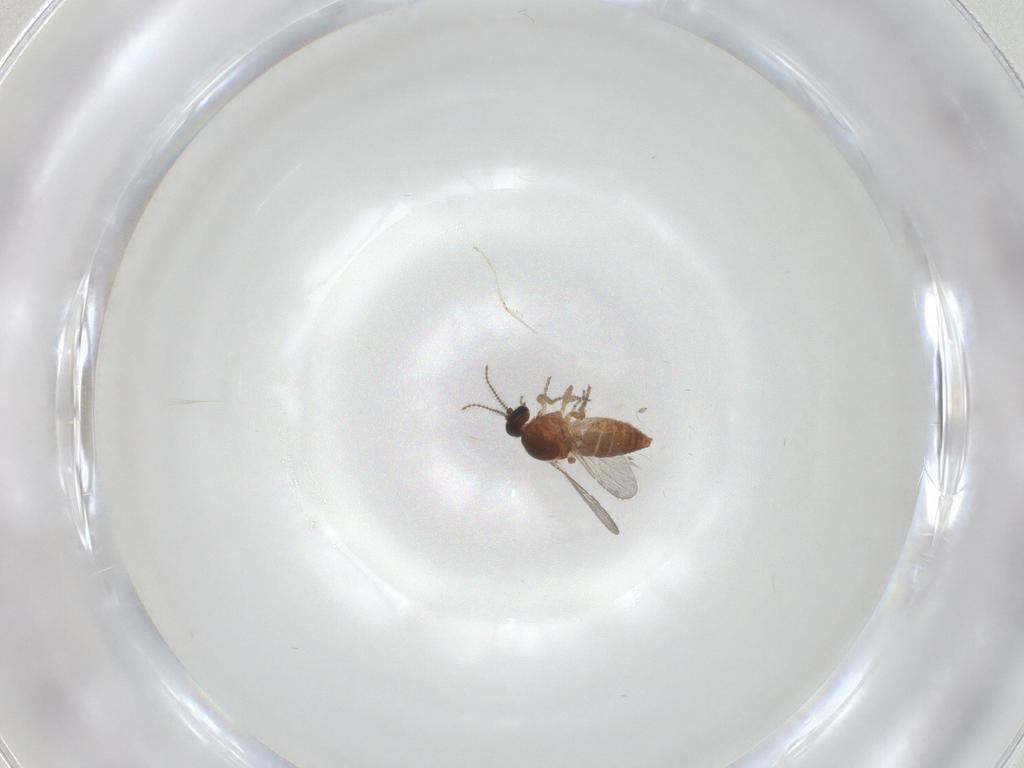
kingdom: Animalia
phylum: Arthropoda
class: Insecta
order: Diptera
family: Ceratopogonidae
